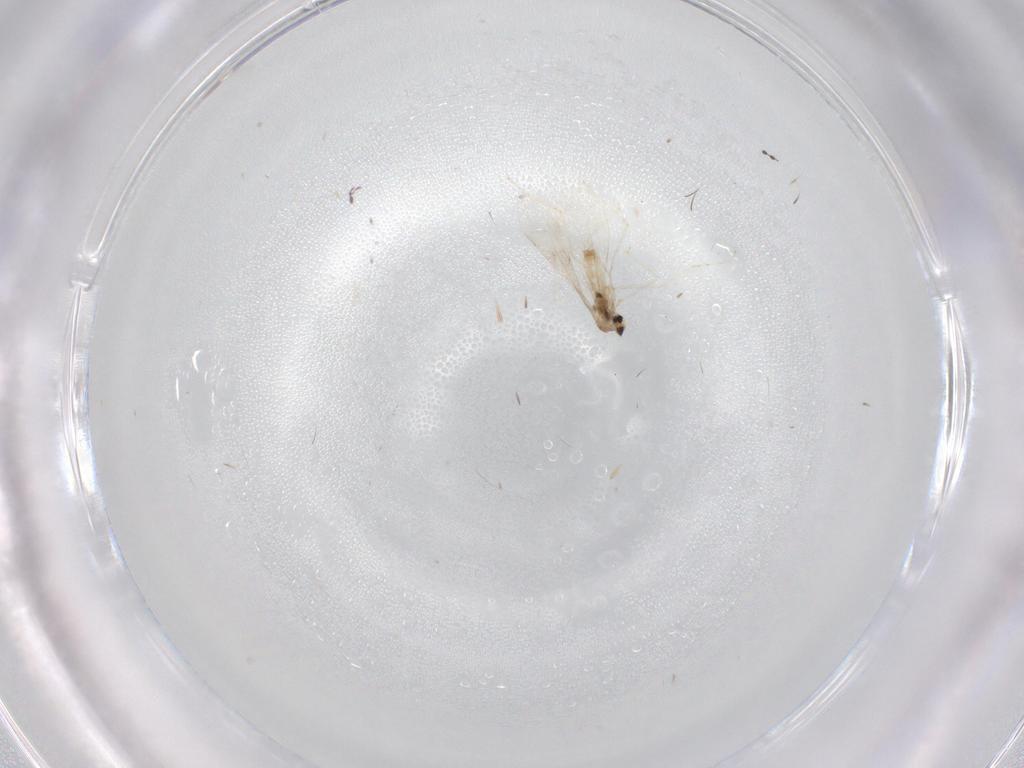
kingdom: Animalia
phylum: Arthropoda
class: Insecta
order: Diptera
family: Cecidomyiidae
